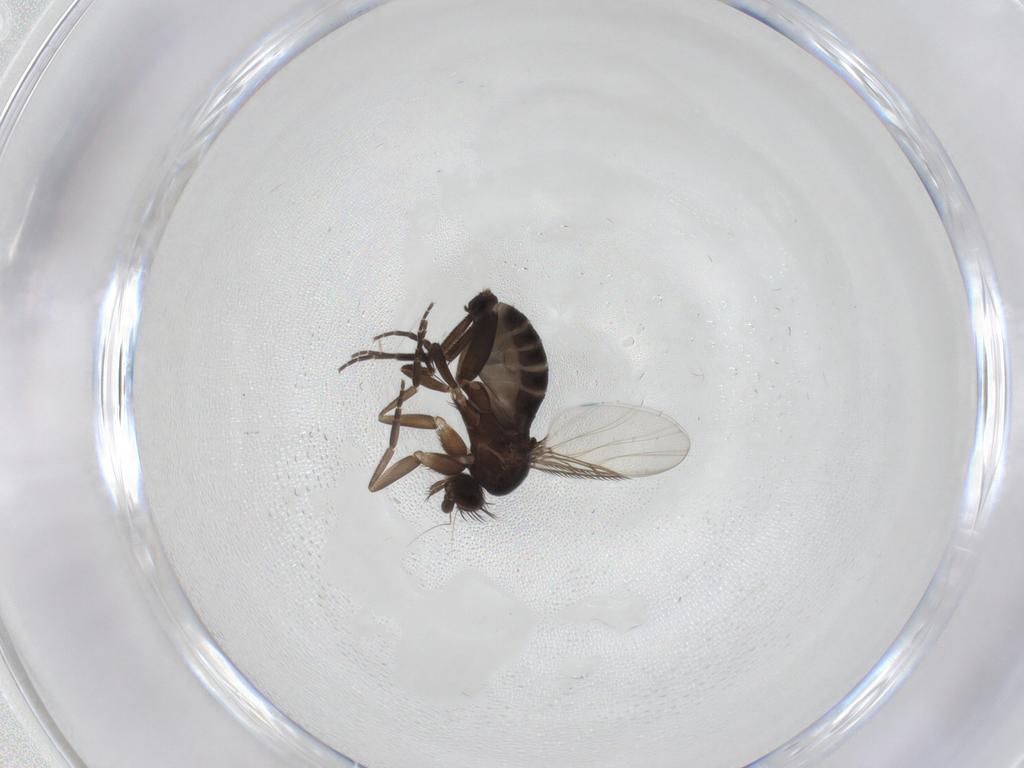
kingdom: Animalia
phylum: Arthropoda
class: Insecta
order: Diptera
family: Phoridae
